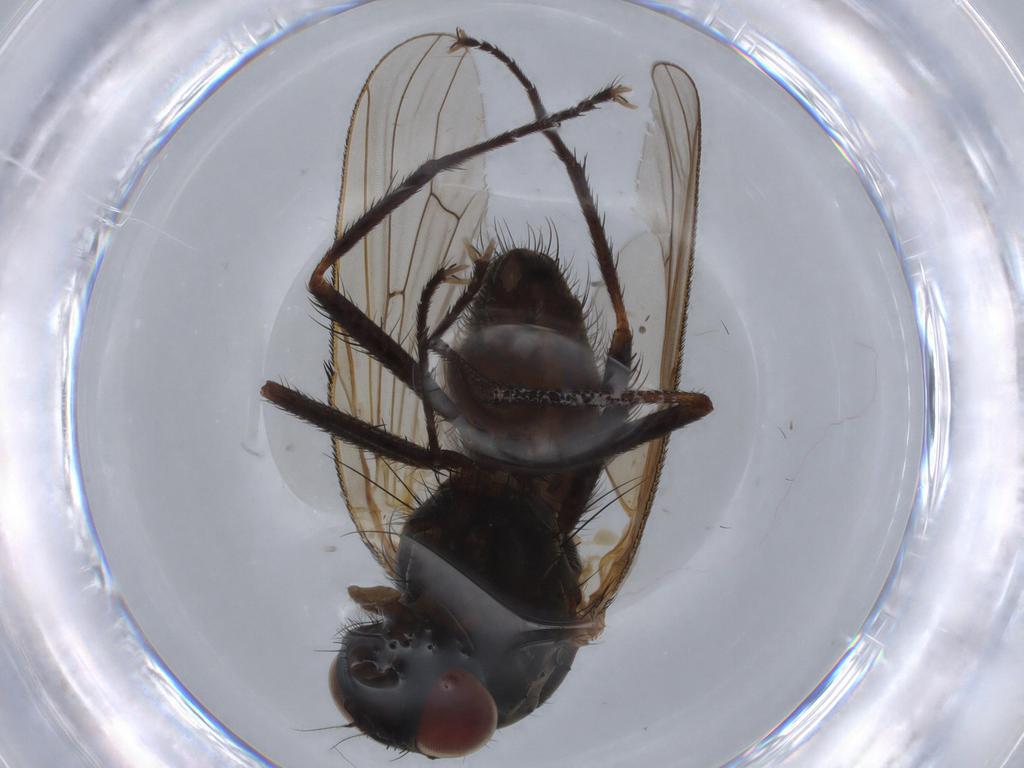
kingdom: Animalia
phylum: Arthropoda
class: Insecta
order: Diptera
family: Anthomyiidae
